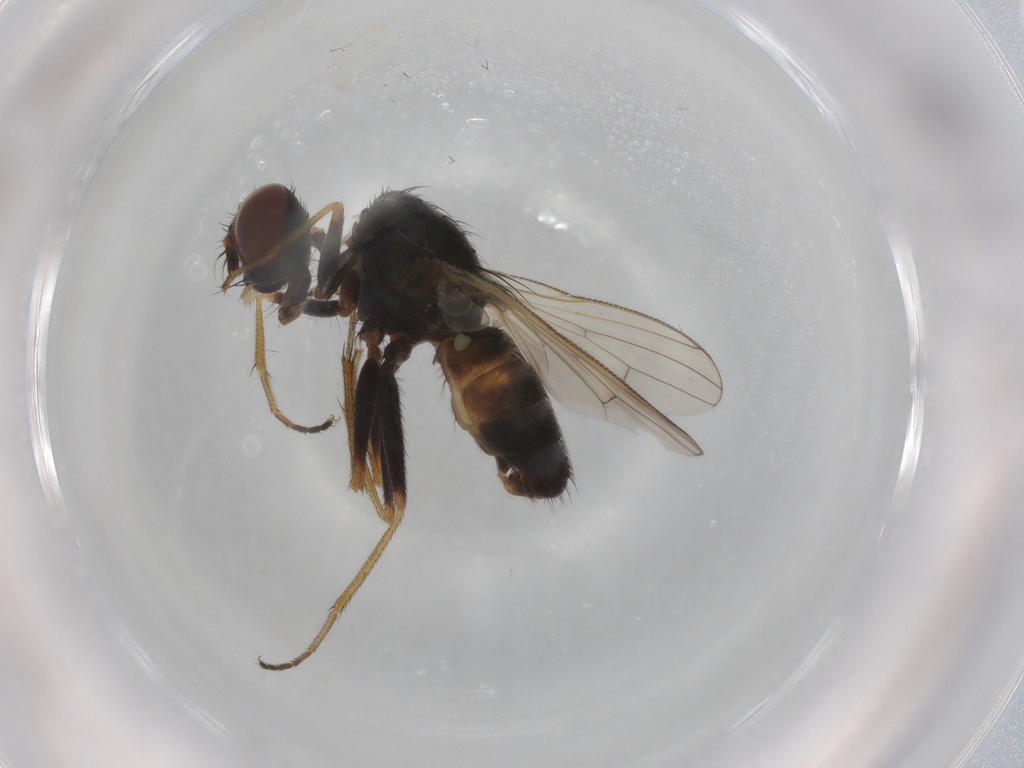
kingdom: Animalia
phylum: Arthropoda
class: Insecta
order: Diptera
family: Muscidae
